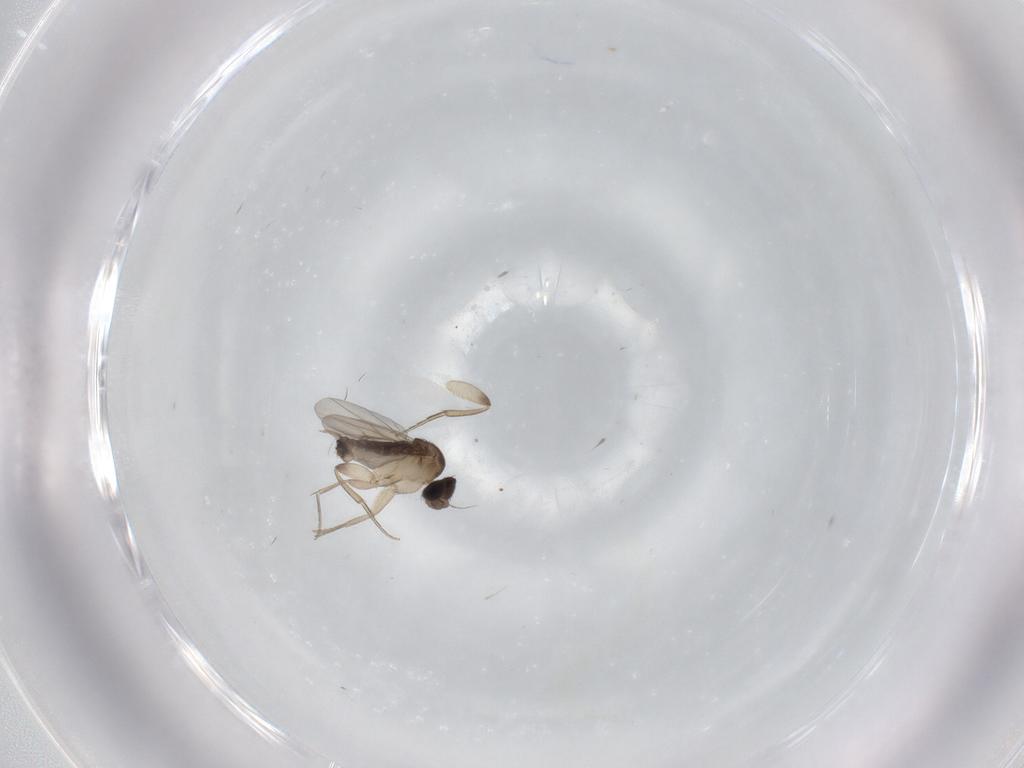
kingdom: Animalia
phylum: Arthropoda
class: Insecta
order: Diptera
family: Phoridae
